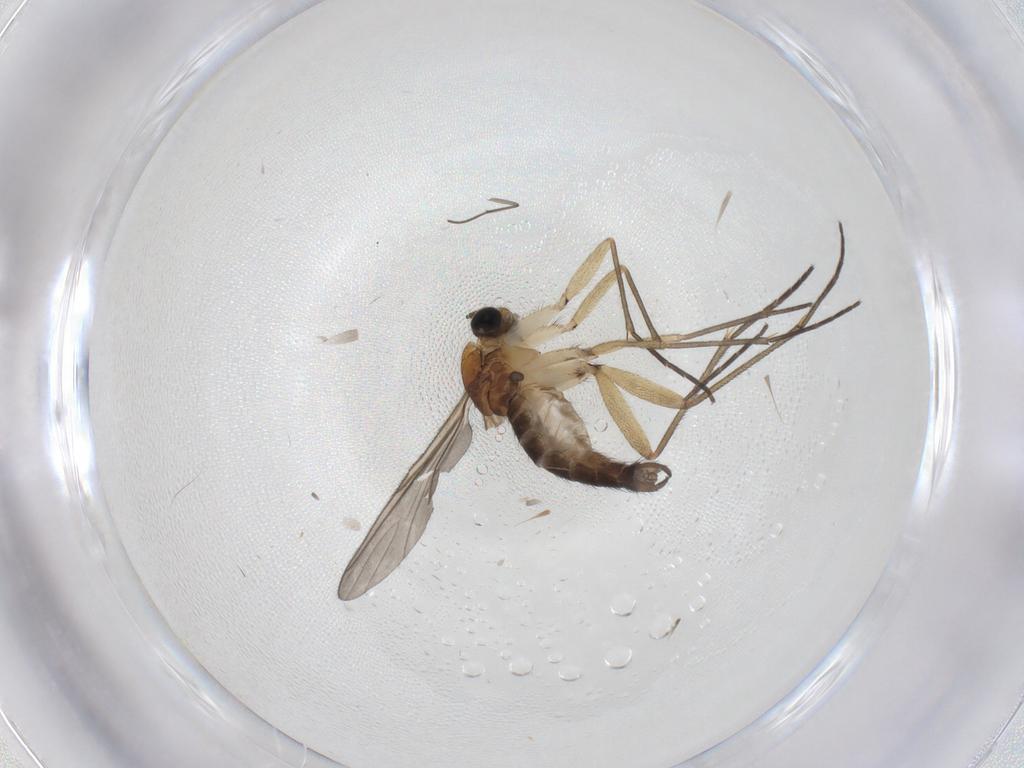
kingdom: Animalia
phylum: Arthropoda
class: Insecta
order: Diptera
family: Sciaridae
